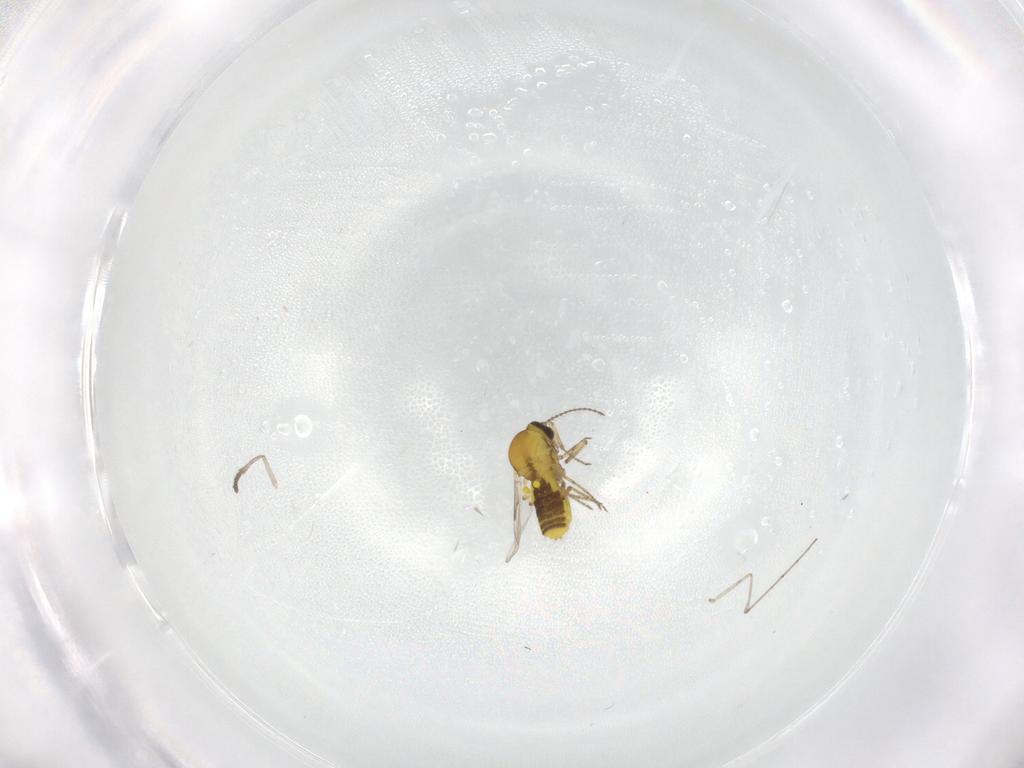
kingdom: Animalia
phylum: Arthropoda
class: Insecta
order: Diptera
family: Psychodidae
